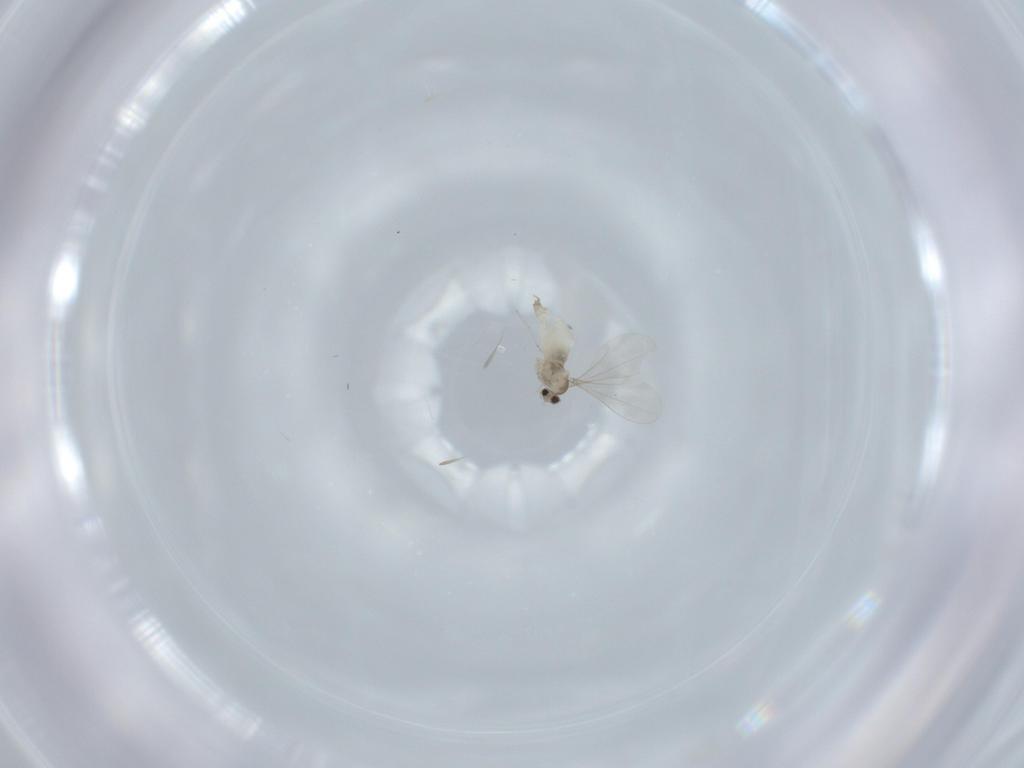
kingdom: Animalia
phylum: Arthropoda
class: Insecta
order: Diptera
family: Cecidomyiidae
